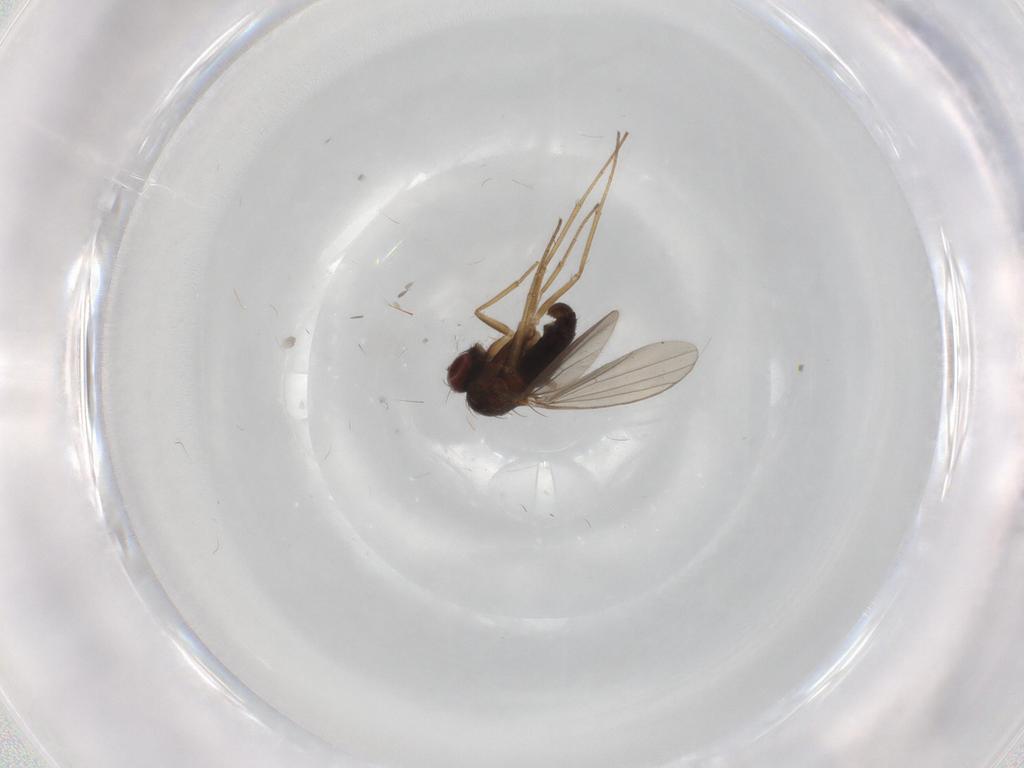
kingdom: Animalia
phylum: Arthropoda
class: Insecta
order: Diptera
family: Dolichopodidae
